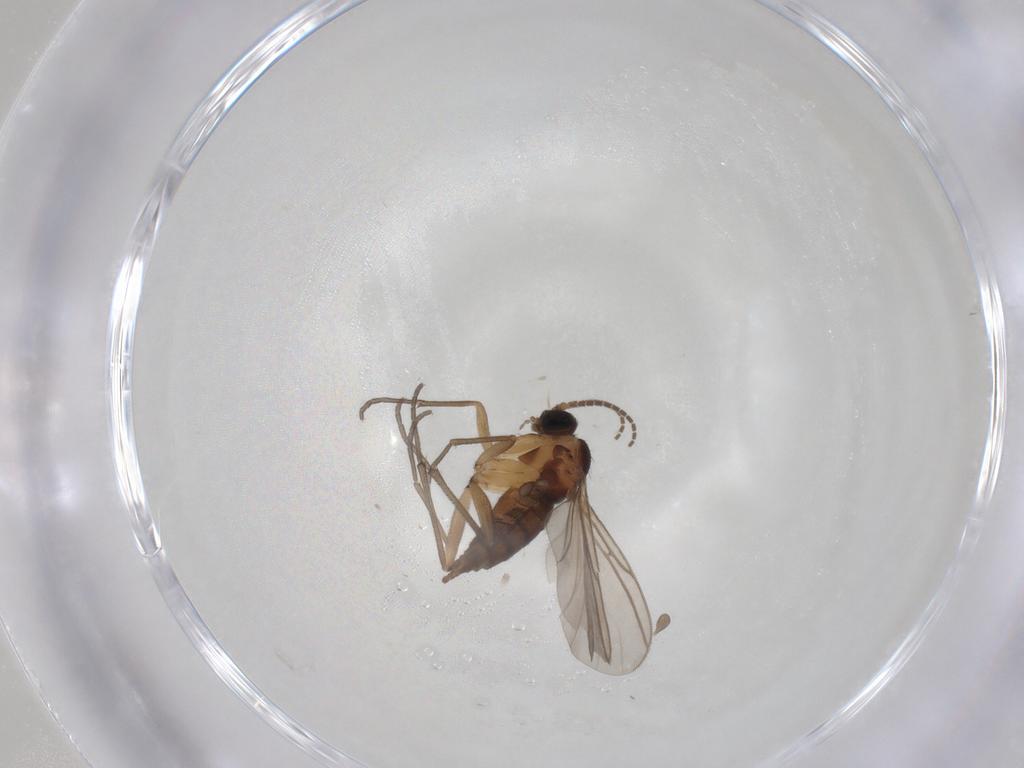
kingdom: Animalia
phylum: Arthropoda
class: Insecta
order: Diptera
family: Sciaridae
